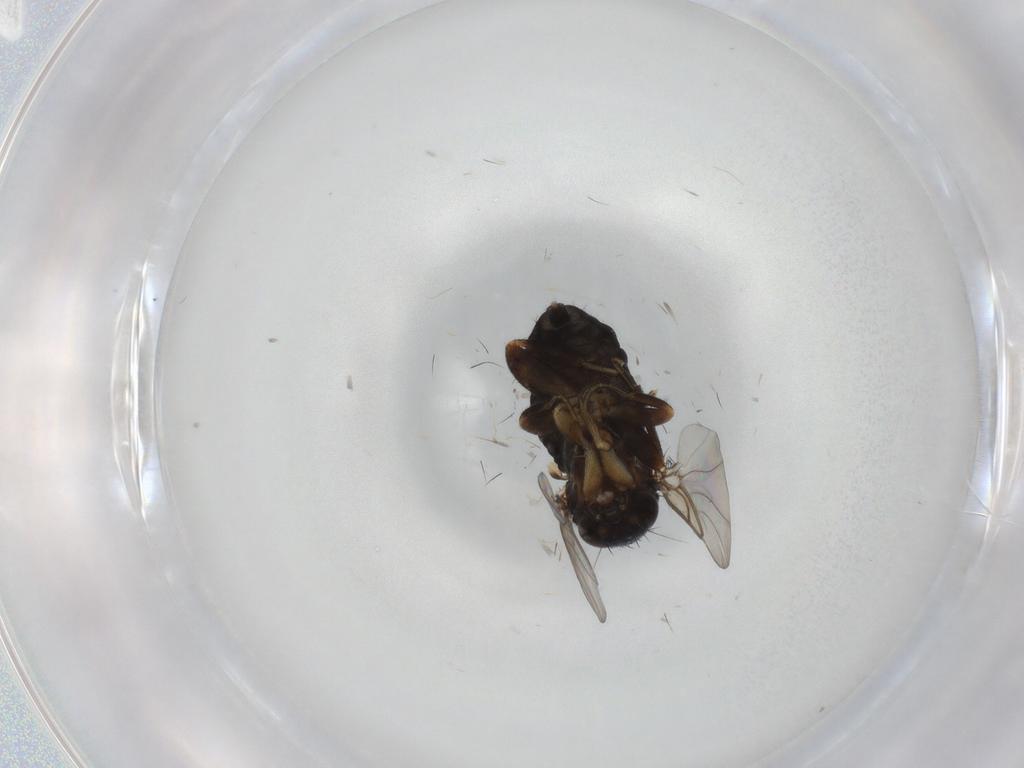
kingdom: Animalia
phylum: Arthropoda
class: Insecta
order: Diptera
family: Phoridae
